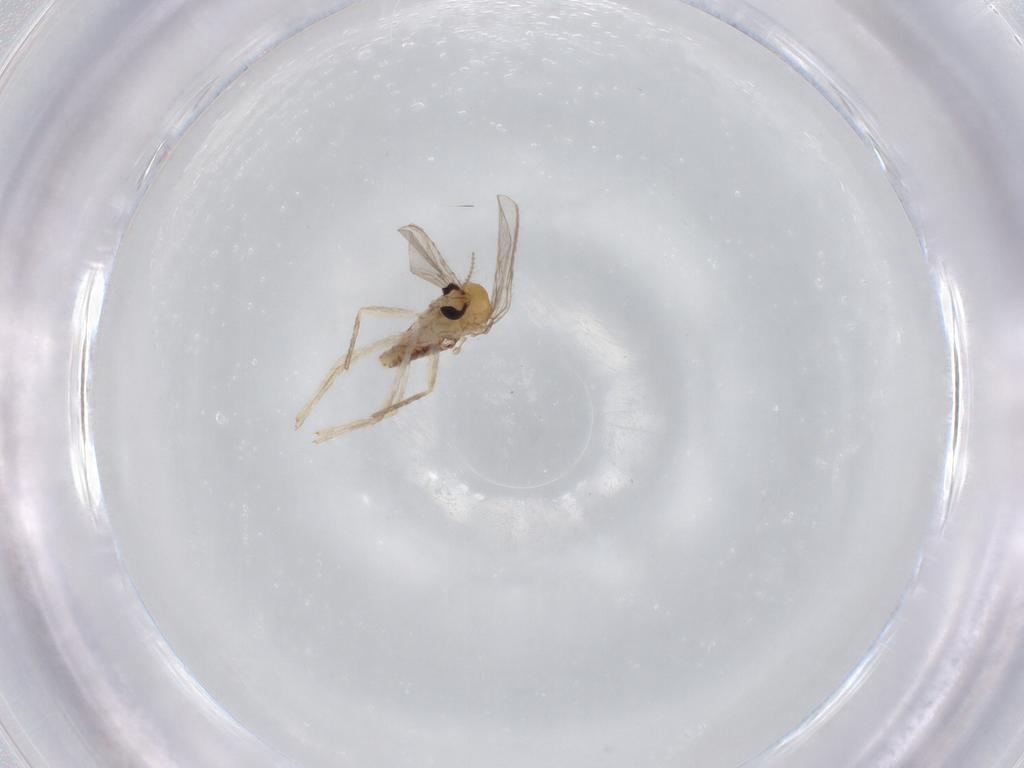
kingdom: Animalia
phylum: Arthropoda
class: Insecta
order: Diptera
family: Chironomidae
